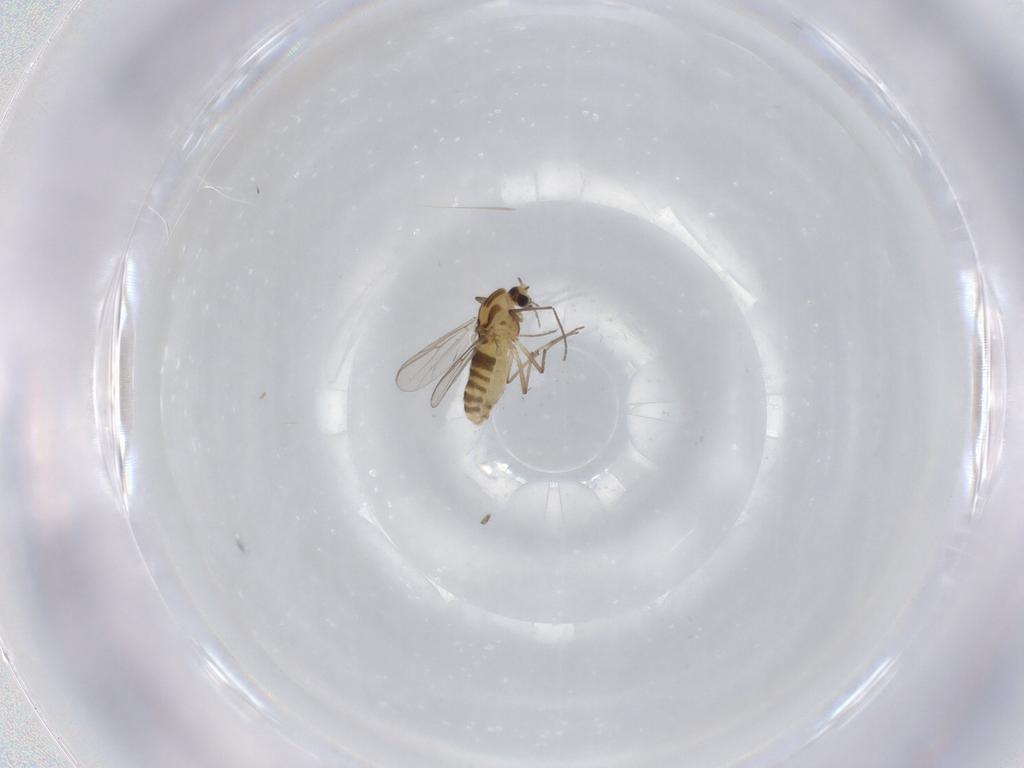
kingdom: Animalia
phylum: Arthropoda
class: Insecta
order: Diptera
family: Chironomidae
